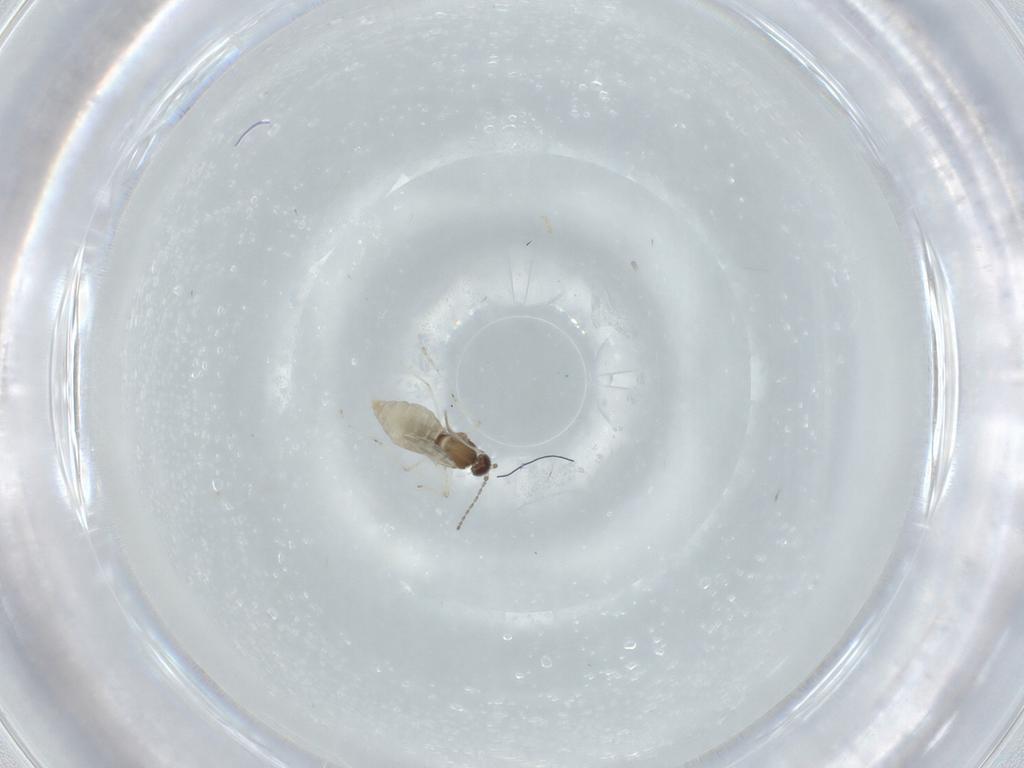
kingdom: Animalia
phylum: Arthropoda
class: Insecta
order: Diptera
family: Cecidomyiidae
